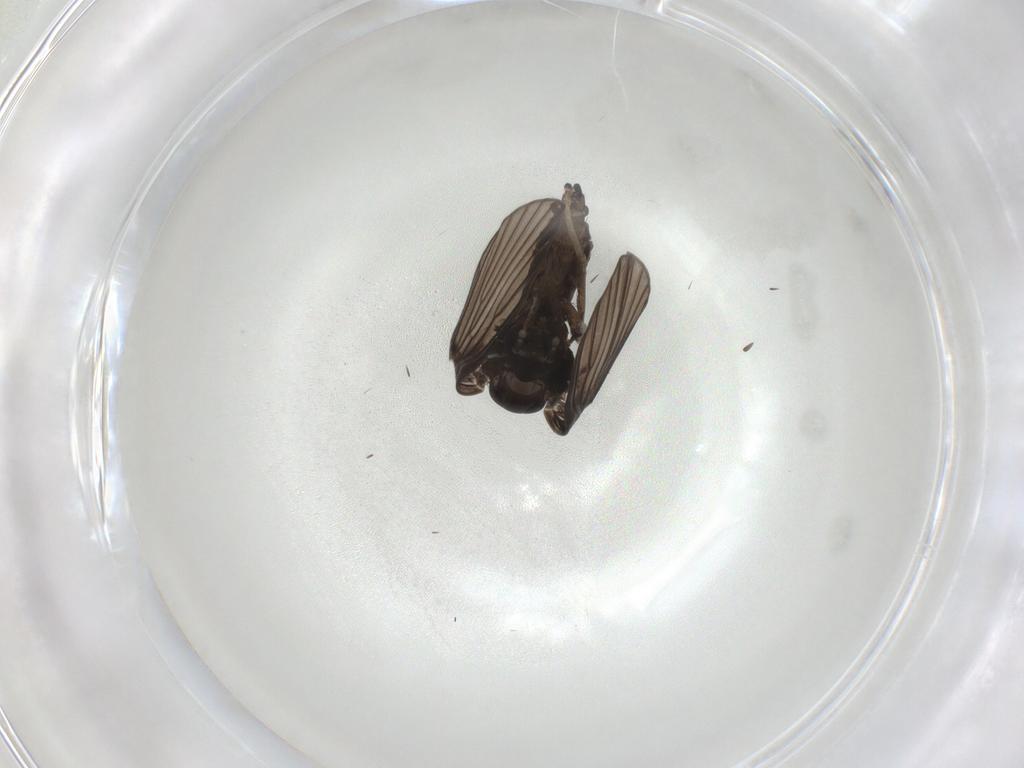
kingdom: Animalia
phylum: Arthropoda
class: Insecta
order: Diptera
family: Psychodidae
